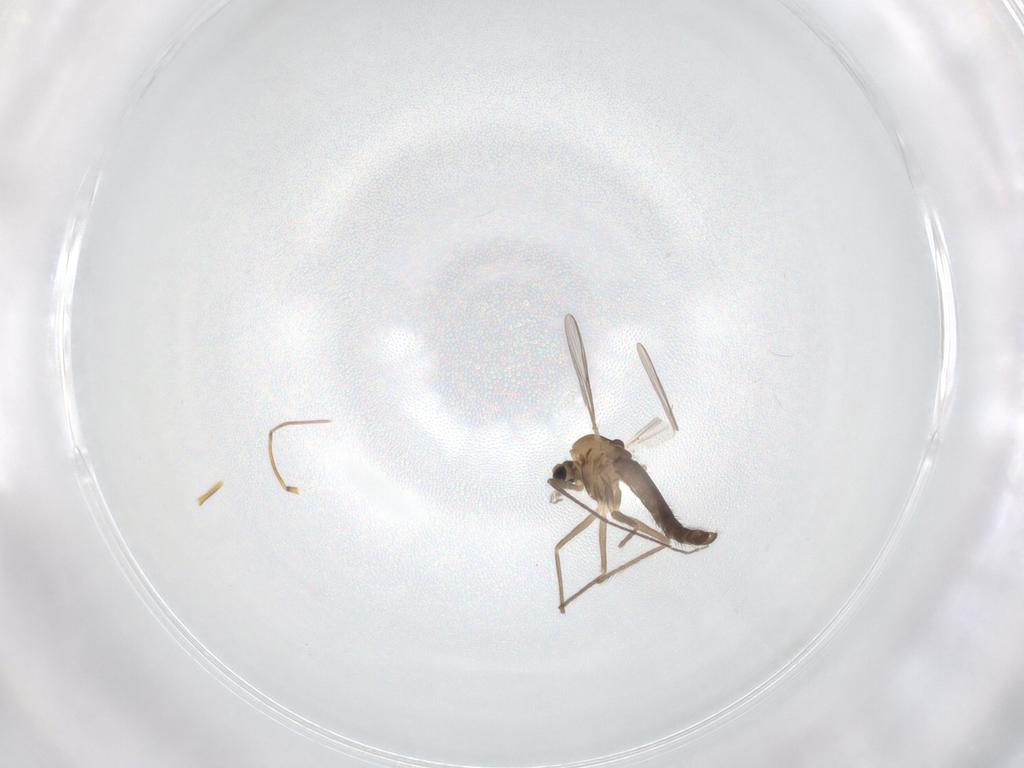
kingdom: Animalia
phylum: Arthropoda
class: Insecta
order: Diptera
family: Chironomidae
